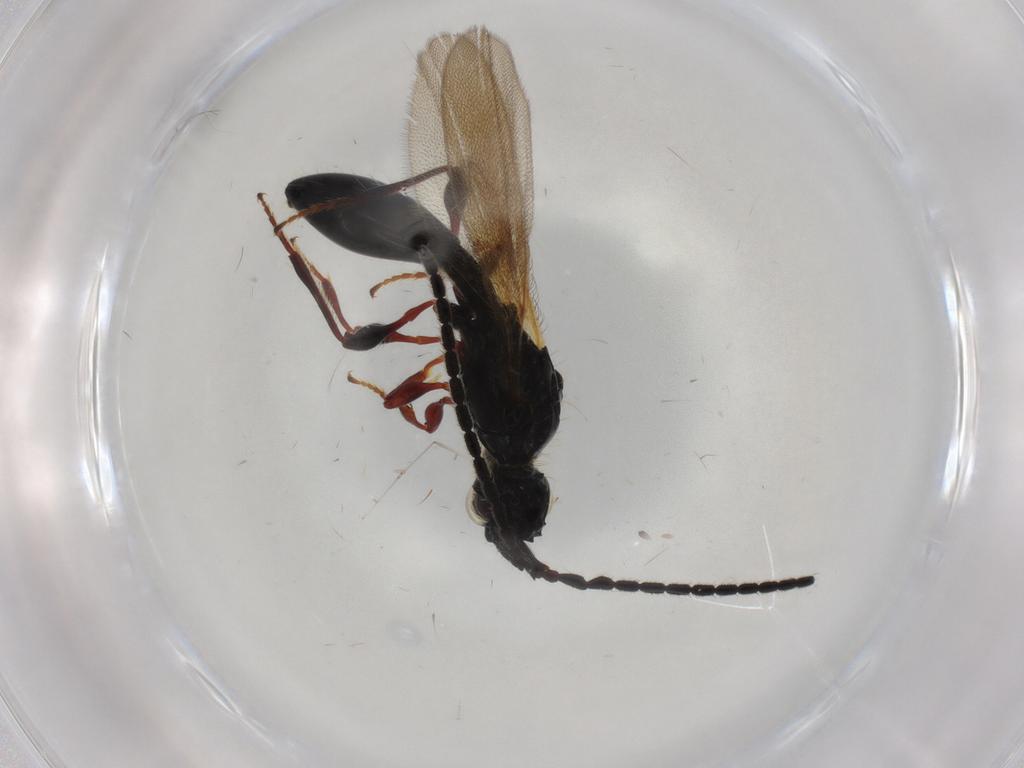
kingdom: Animalia
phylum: Arthropoda
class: Insecta
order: Hymenoptera
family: Diapriidae
